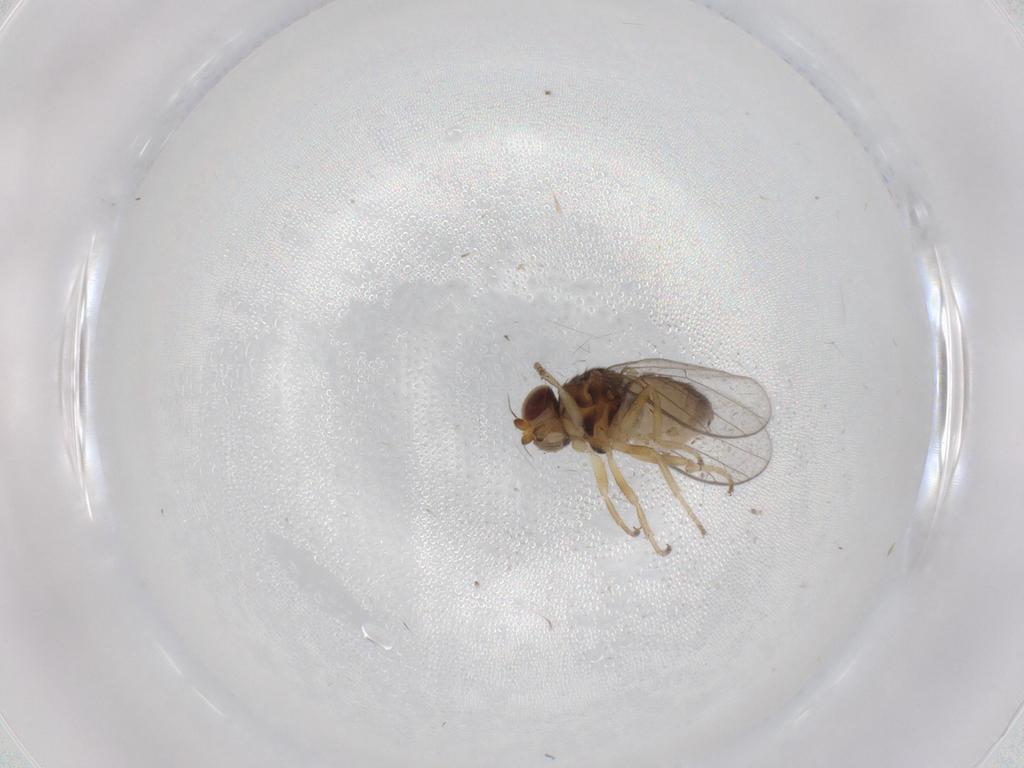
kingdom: Animalia
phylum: Arthropoda
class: Insecta
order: Diptera
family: Chloropidae
